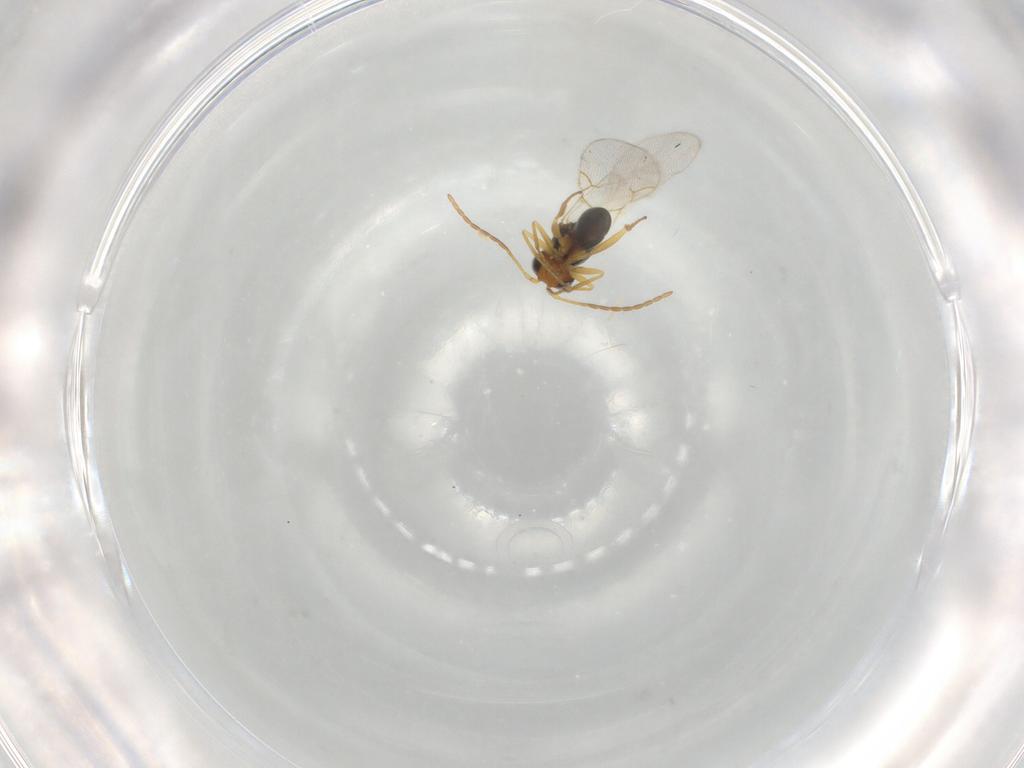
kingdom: Animalia
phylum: Arthropoda
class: Insecta
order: Hymenoptera
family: Figitidae
